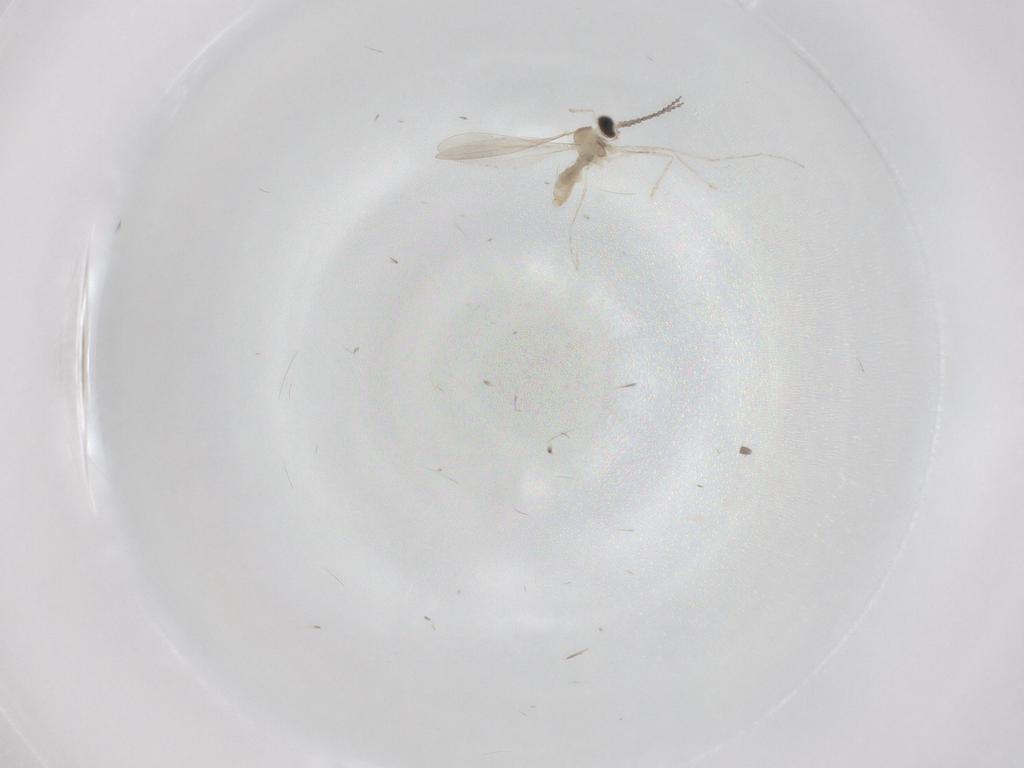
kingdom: Animalia
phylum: Arthropoda
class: Insecta
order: Diptera
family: Cecidomyiidae
